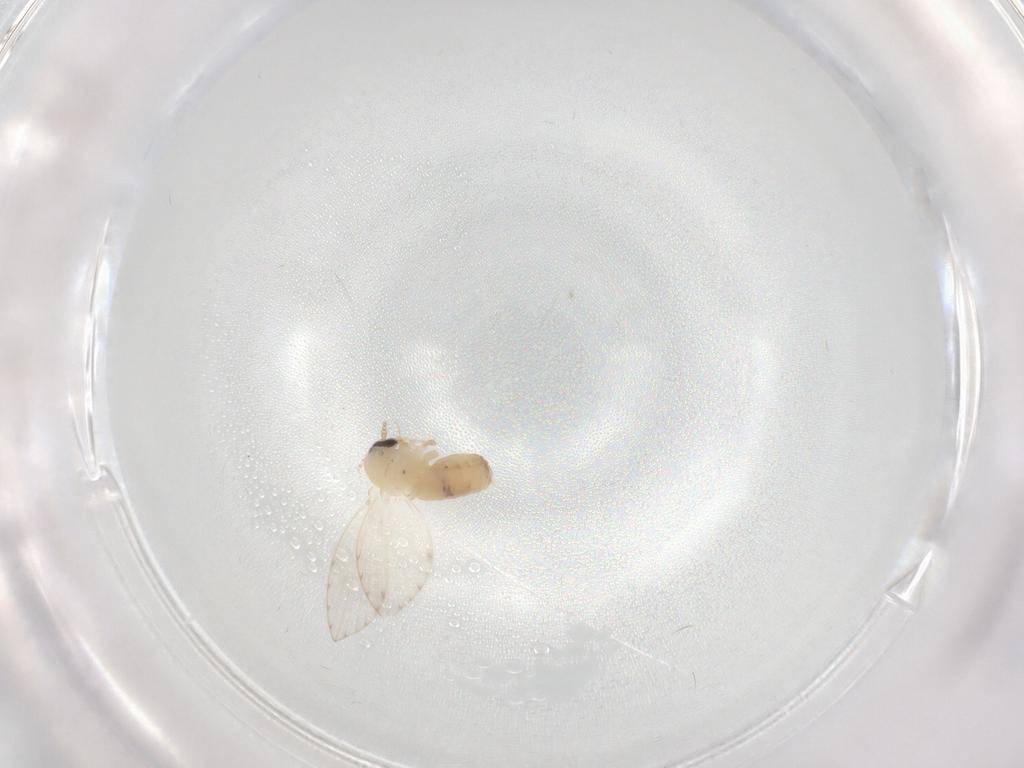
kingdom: Animalia
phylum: Arthropoda
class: Insecta
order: Diptera
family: Psychodidae
